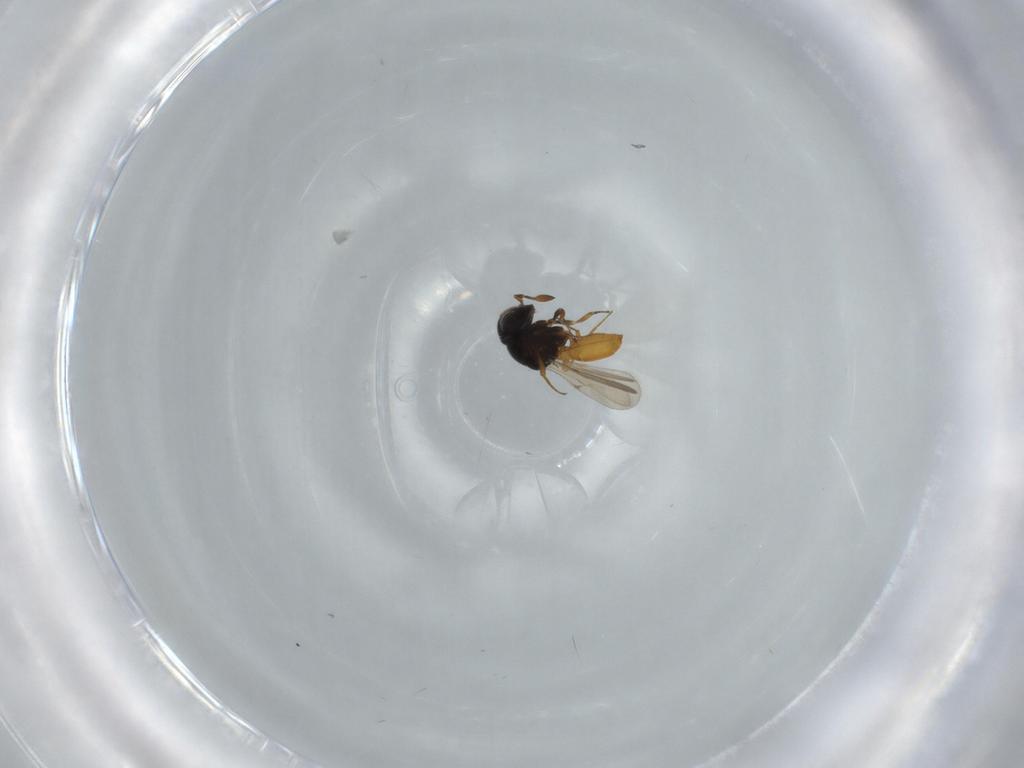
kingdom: Animalia
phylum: Arthropoda
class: Insecta
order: Hymenoptera
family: Scelionidae
